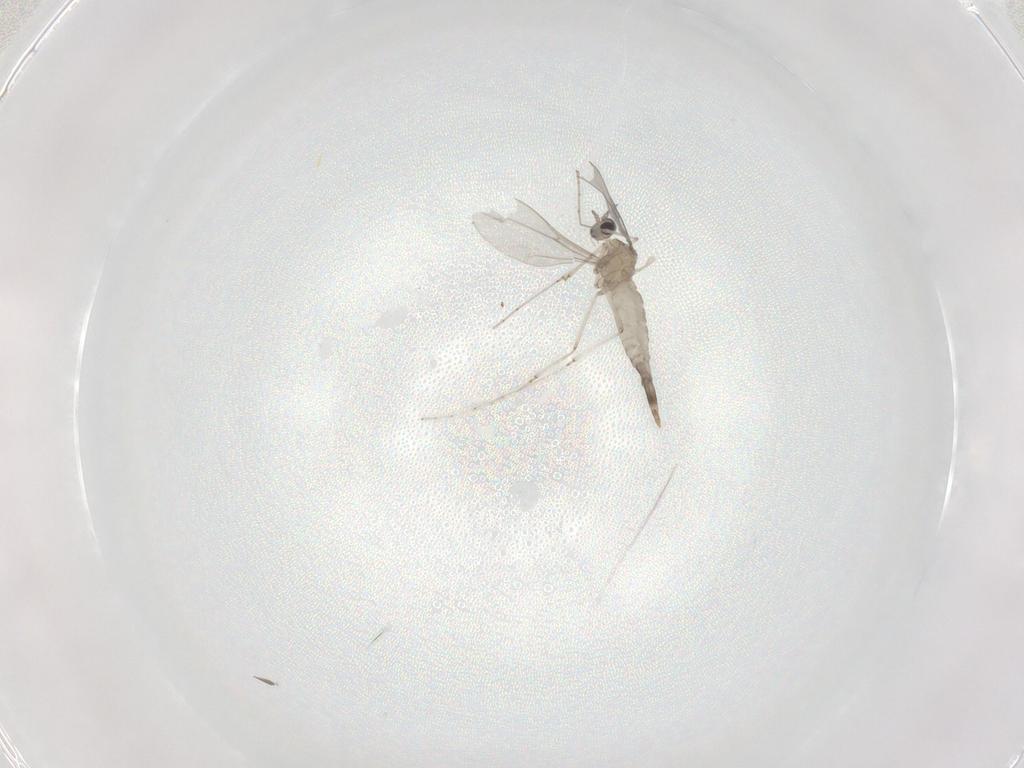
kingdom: Animalia
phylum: Arthropoda
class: Insecta
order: Diptera
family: Cecidomyiidae
